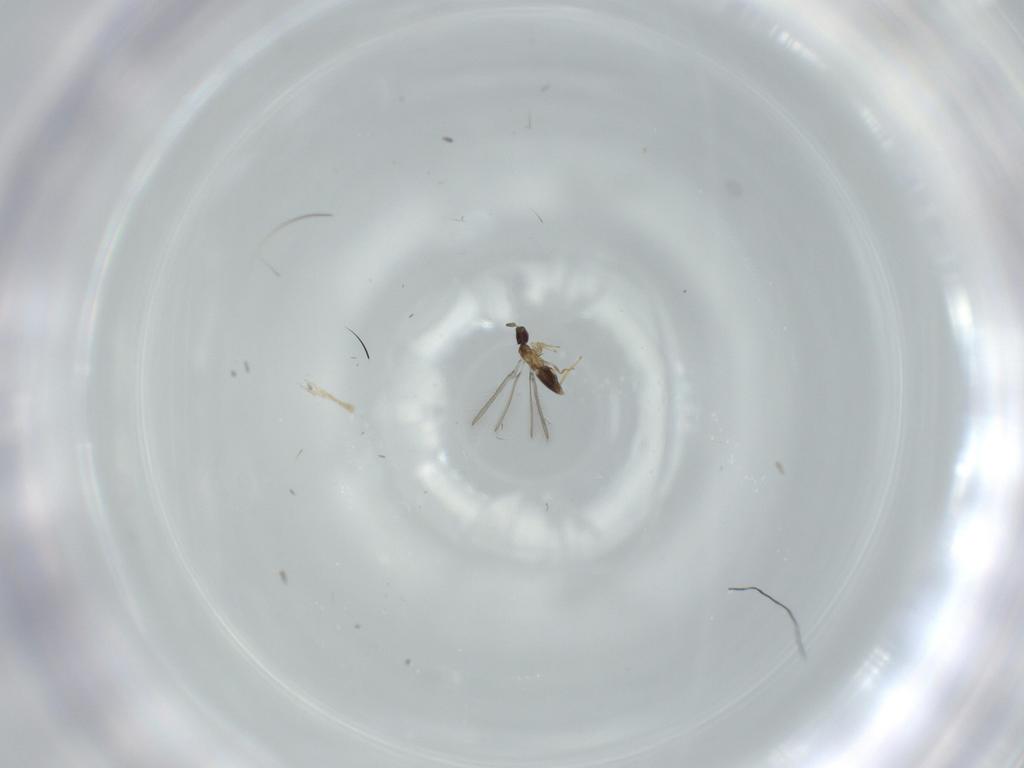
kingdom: Animalia
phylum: Arthropoda
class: Insecta
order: Hymenoptera
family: Mymaridae
